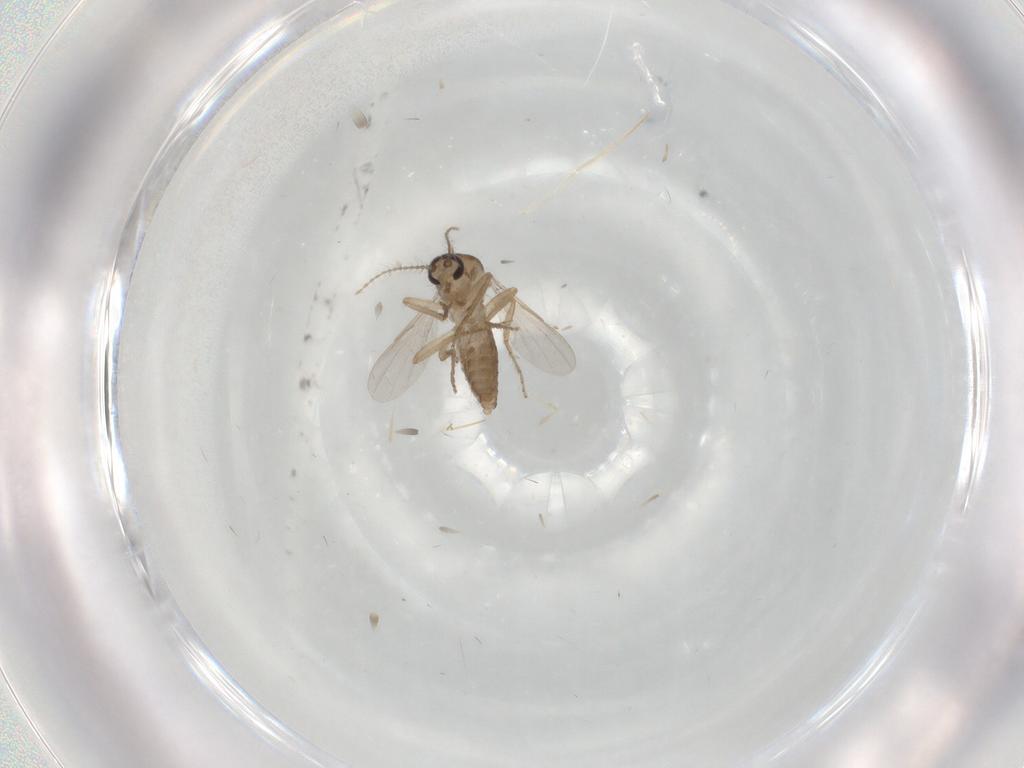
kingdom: Animalia
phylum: Arthropoda
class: Insecta
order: Diptera
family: Ceratopogonidae
